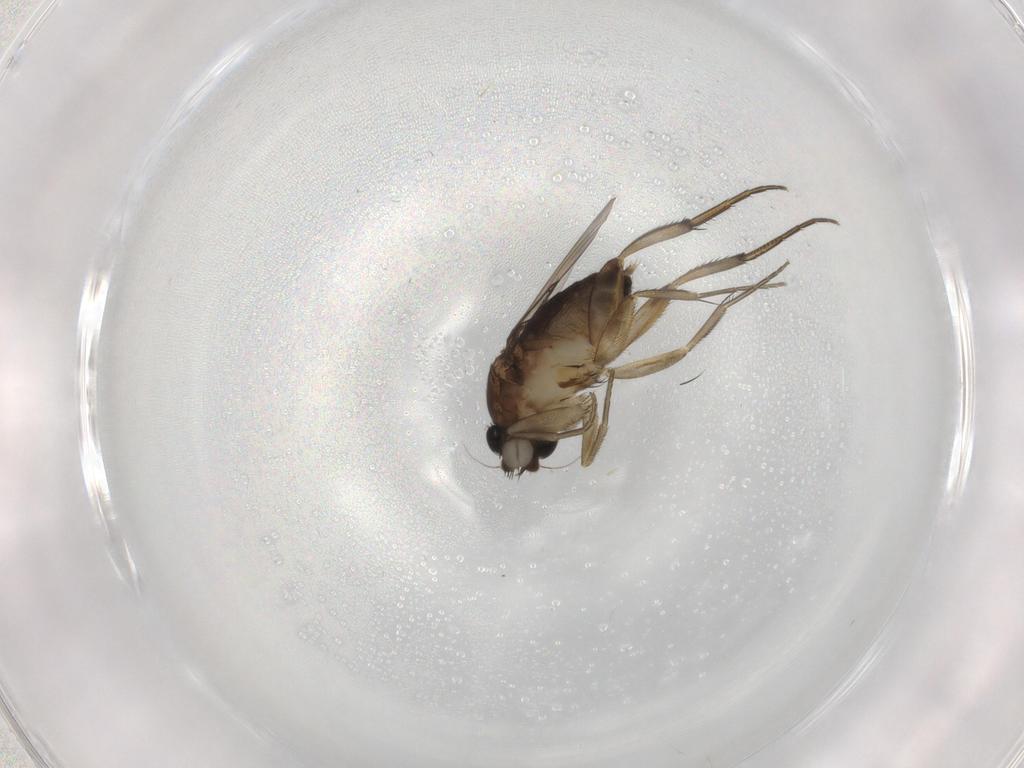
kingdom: Animalia
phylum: Arthropoda
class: Insecta
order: Diptera
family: Phoridae
